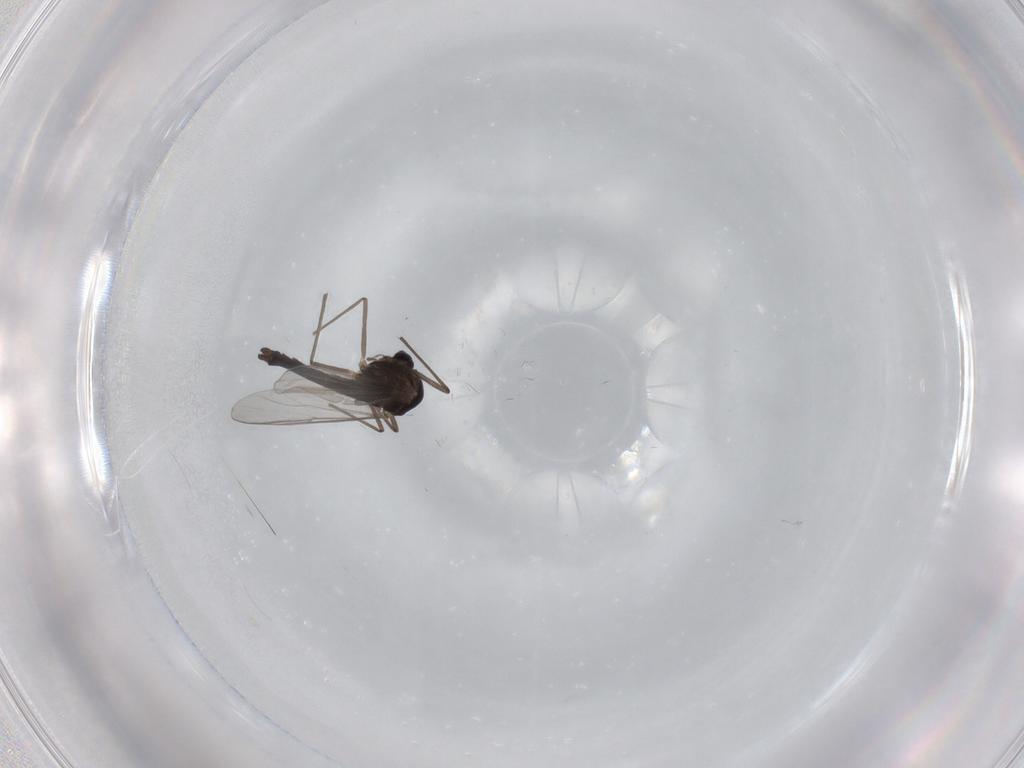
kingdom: Animalia
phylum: Arthropoda
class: Insecta
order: Diptera
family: Chironomidae
